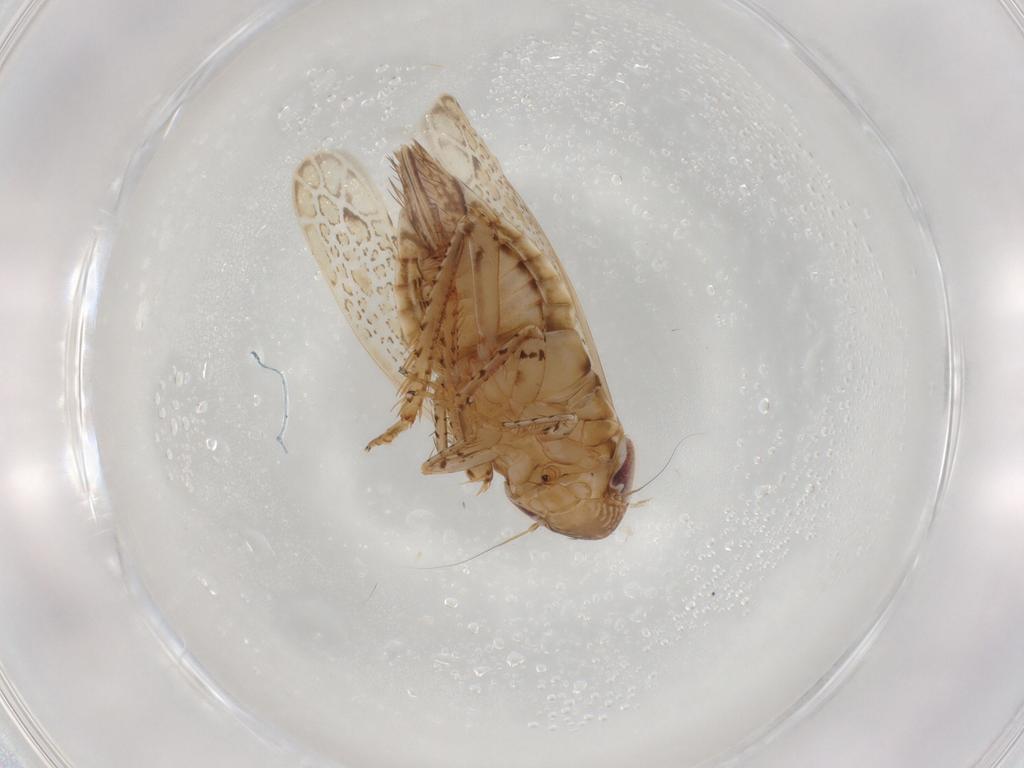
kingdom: Animalia
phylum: Arthropoda
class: Insecta
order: Hemiptera
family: Cicadellidae
